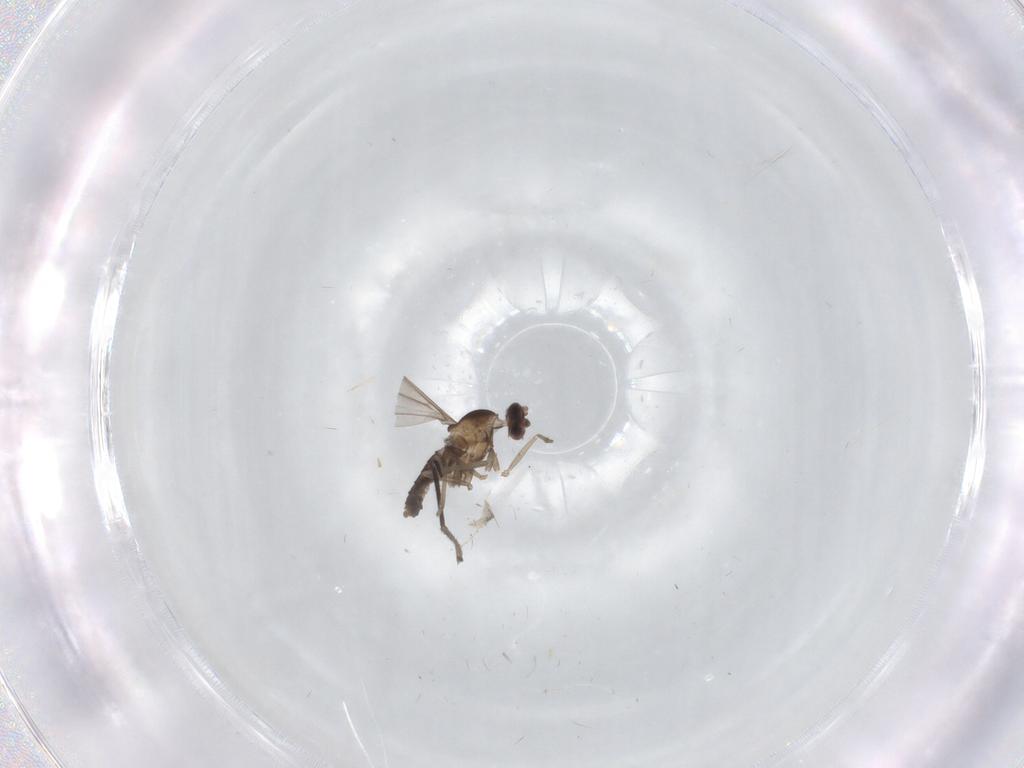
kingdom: Animalia
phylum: Arthropoda
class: Insecta
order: Diptera
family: Sciaridae
